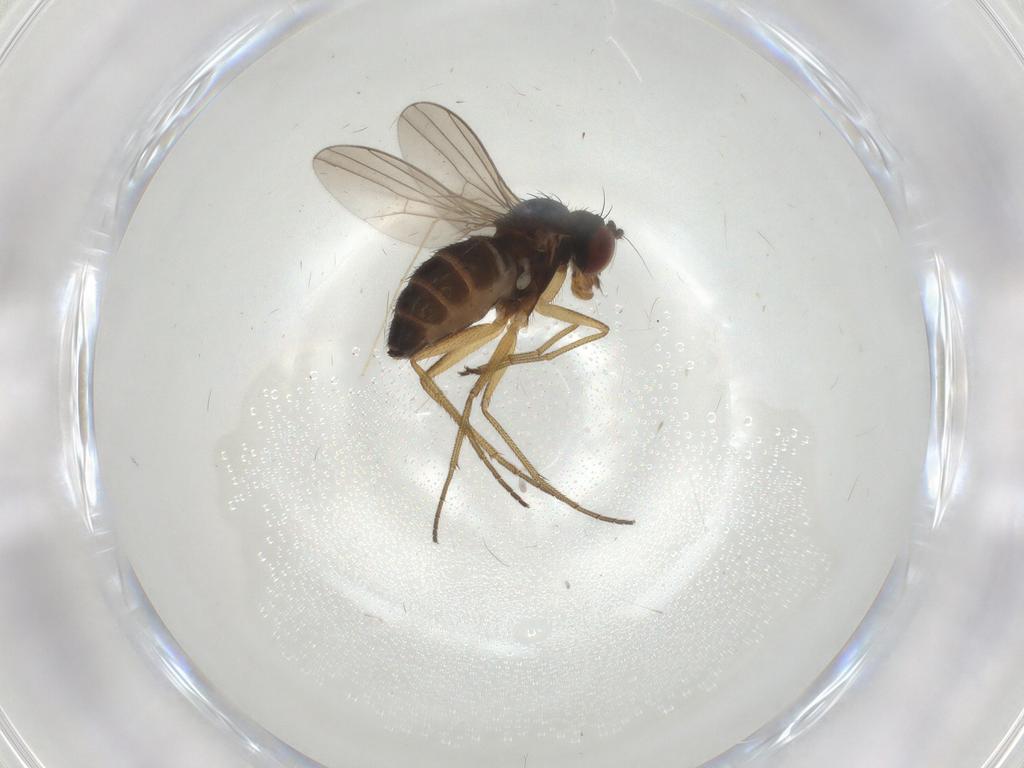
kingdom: Animalia
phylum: Arthropoda
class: Insecta
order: Diptera
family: Dolichopodidae
